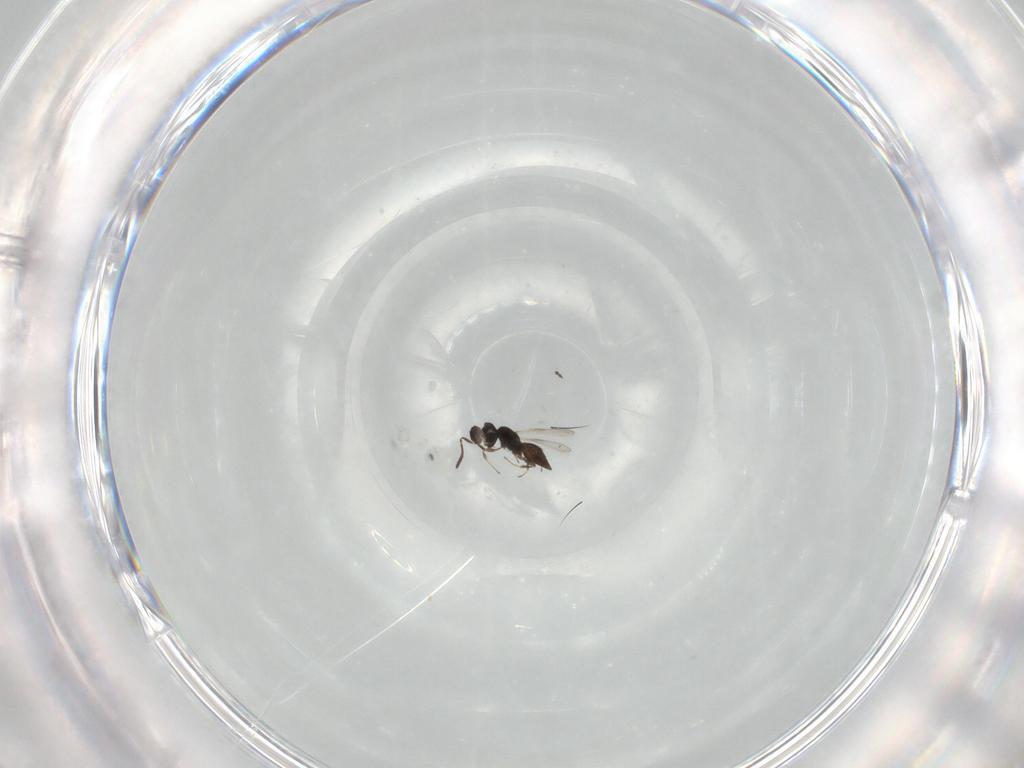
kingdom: Animalia
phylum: Arthropoda
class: Insecta
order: Hymenoptera
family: Scelionidae
